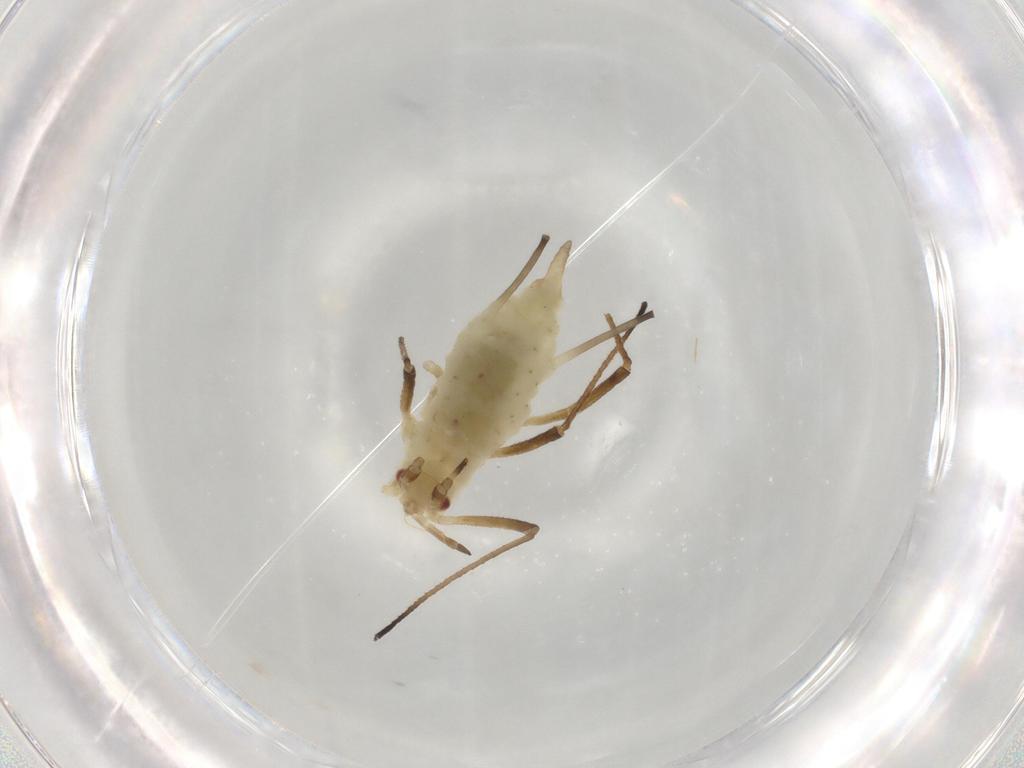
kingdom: Animalia
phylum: Arthropoda
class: Insecta
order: Hemiptera
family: Aphididae
